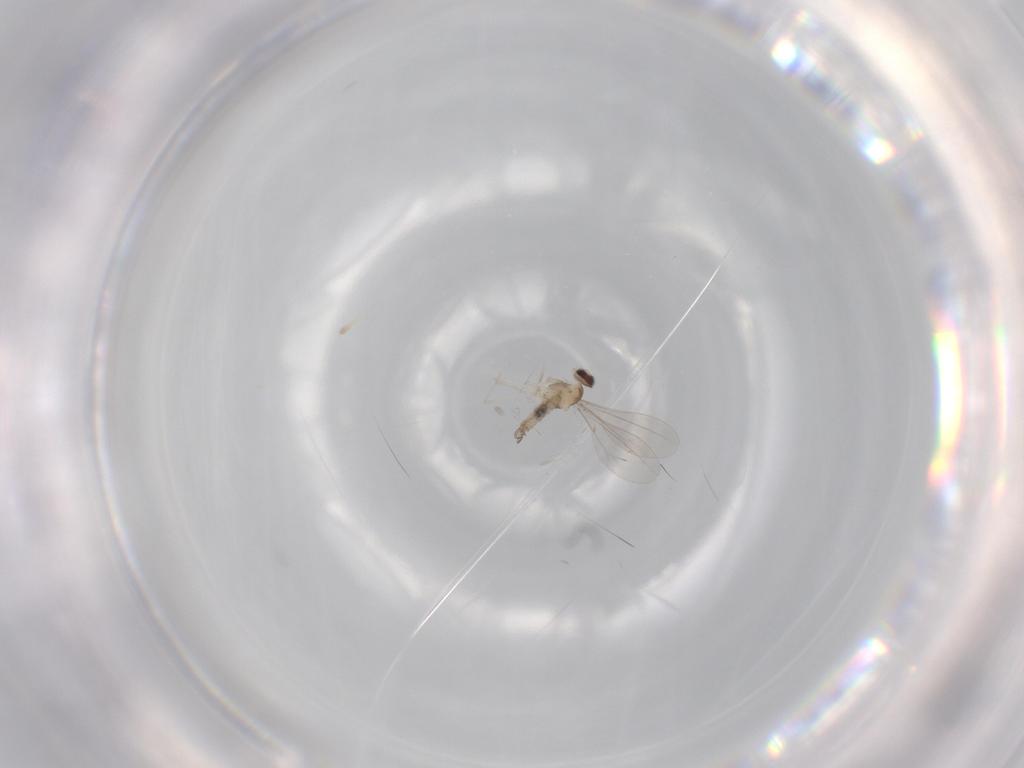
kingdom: Animalia
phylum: Arthropoda
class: Insecta
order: Diptera
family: Cecidomyiidae
